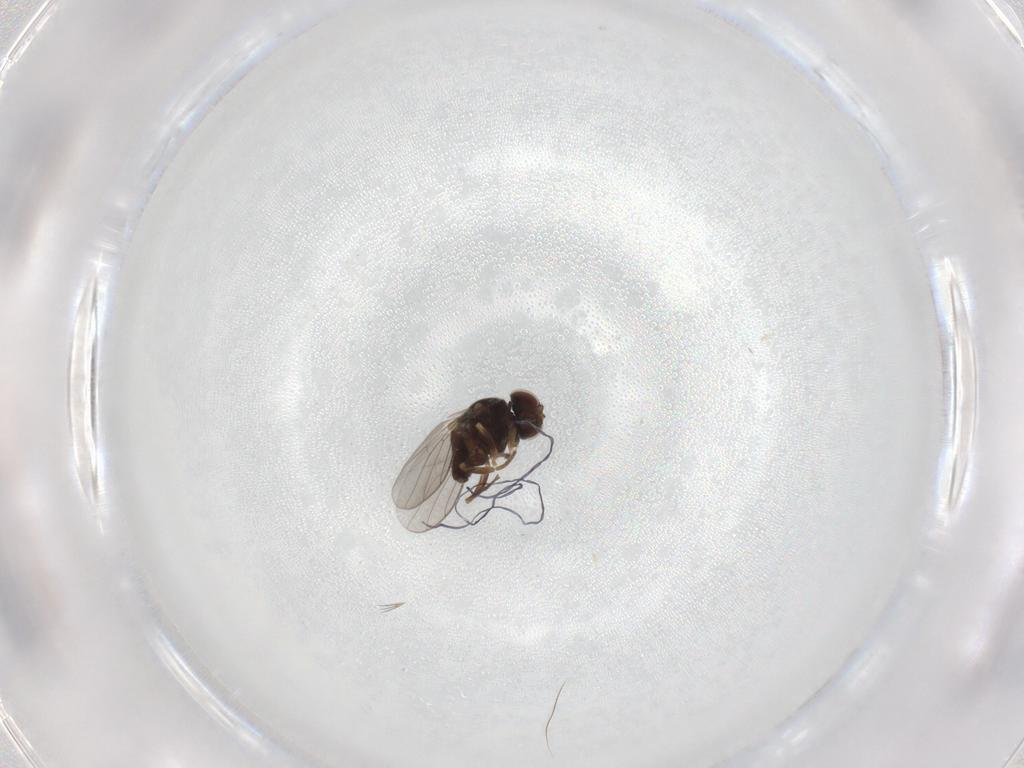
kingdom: Animalia
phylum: Arthropoda
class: Insecta
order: Diptera
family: Chloropidae
